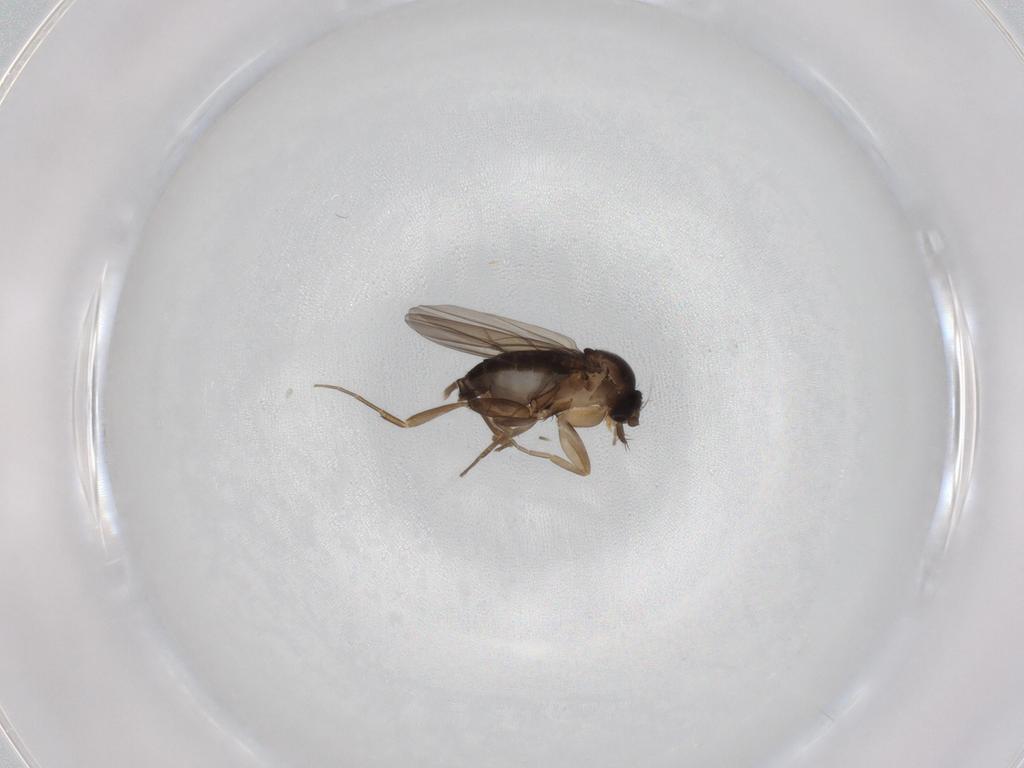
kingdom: Animalia
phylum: Arthropoda
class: Insecta
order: Diptera
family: Phoridae
